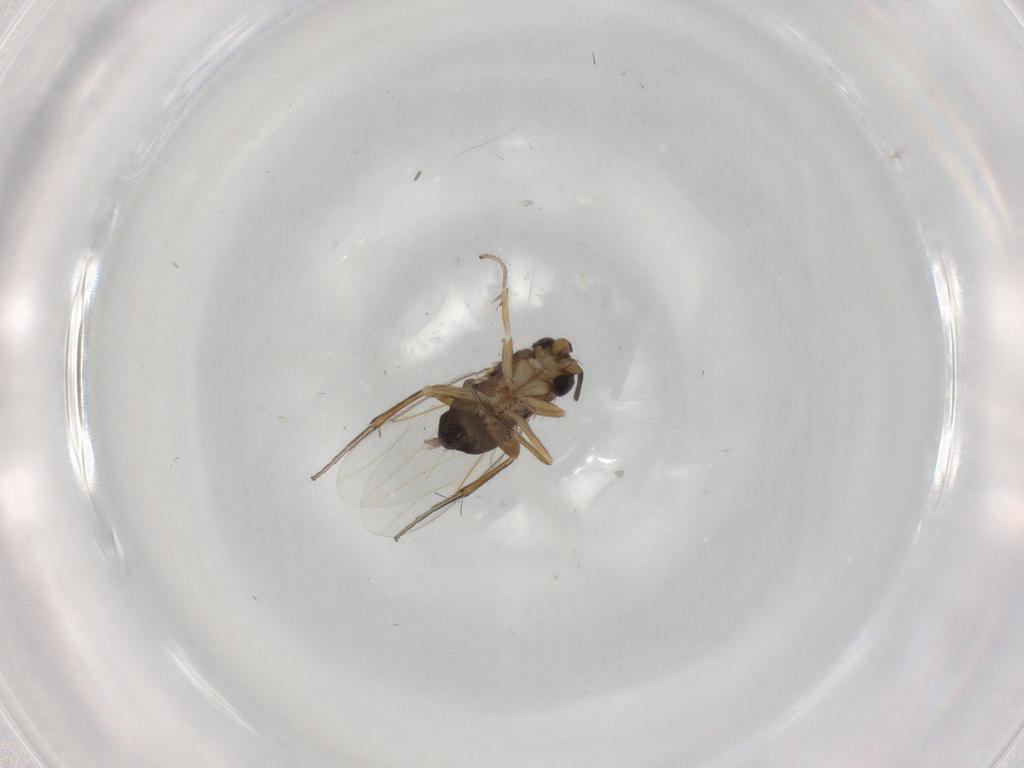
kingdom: Animalia
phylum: Arthropoda
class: Insecta
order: Diptera
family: Phoridae
